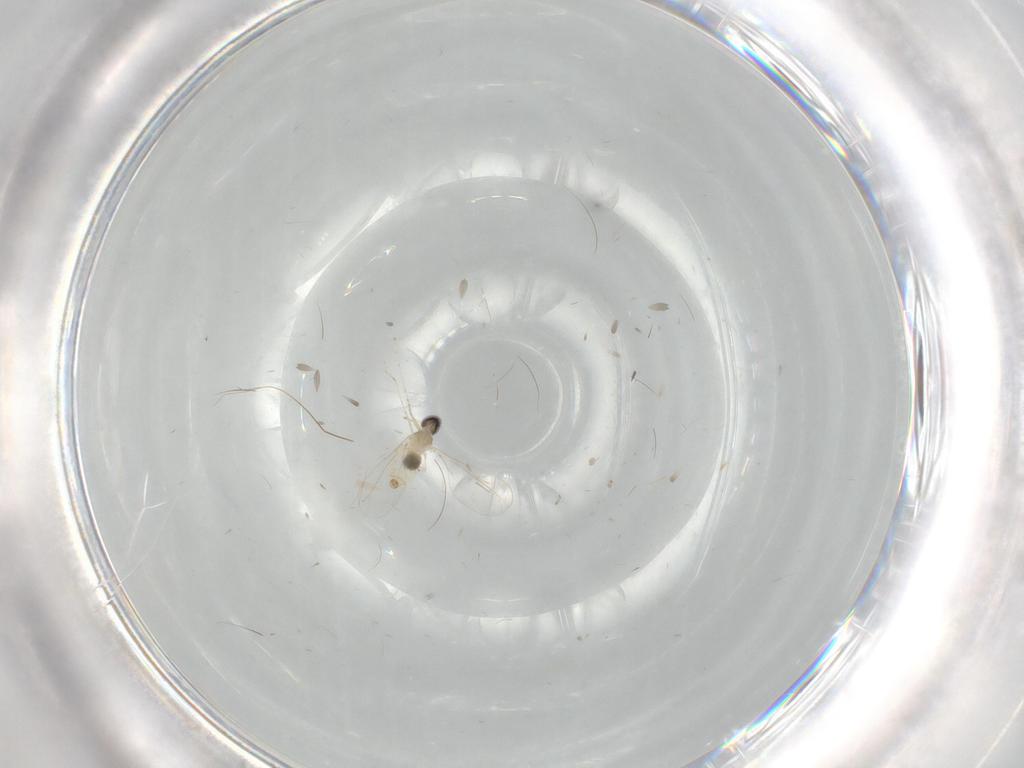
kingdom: Animalia
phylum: Arthropoda
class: Insecta
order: Diptera
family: Cecidomyiidae
